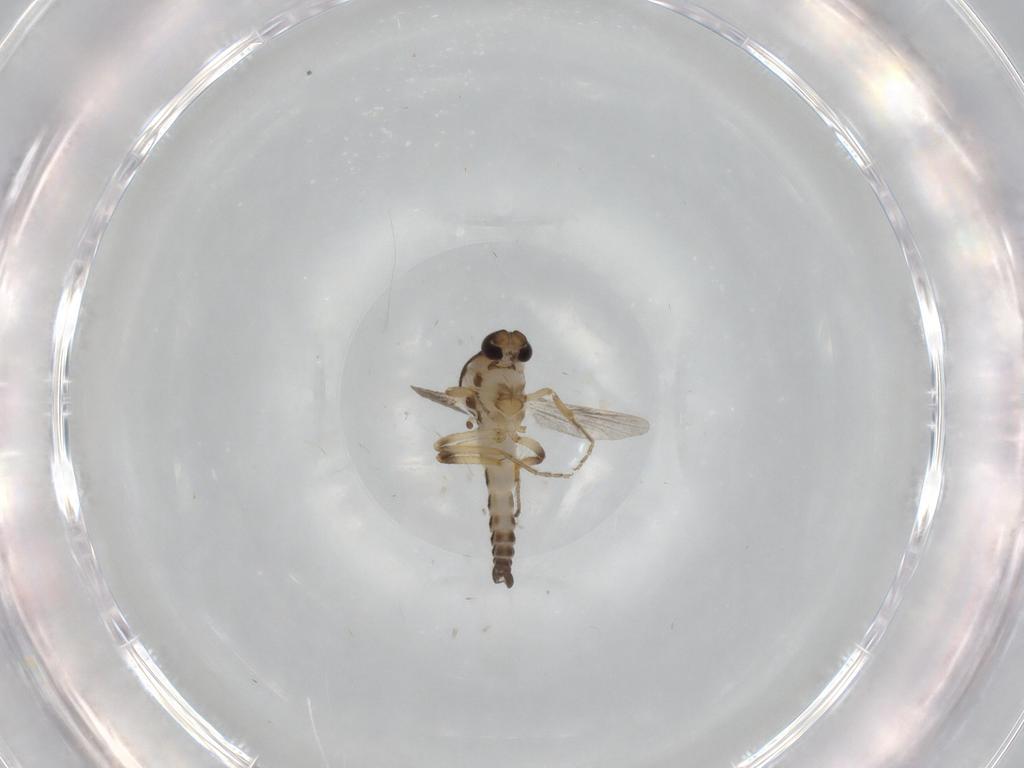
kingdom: Animalia
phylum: Arthropoda
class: Insecta
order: Diptera
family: Ceratopogonidae
